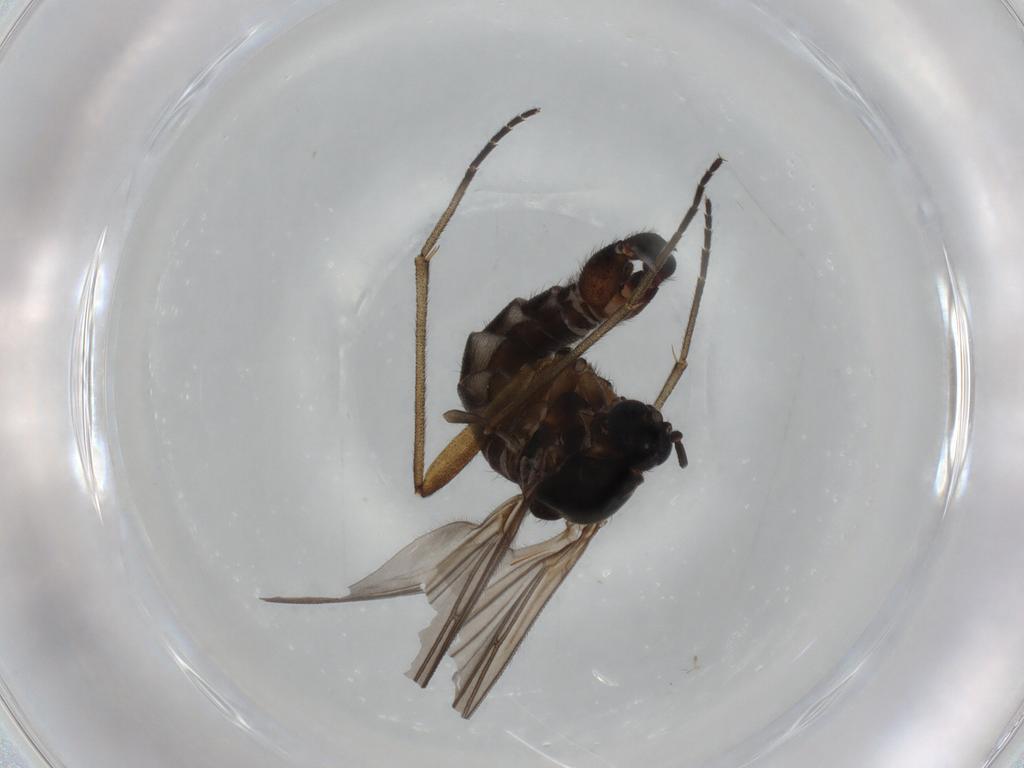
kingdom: Animalia
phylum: Arthropoda
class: Insecta
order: Diptera
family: Sciaridae
